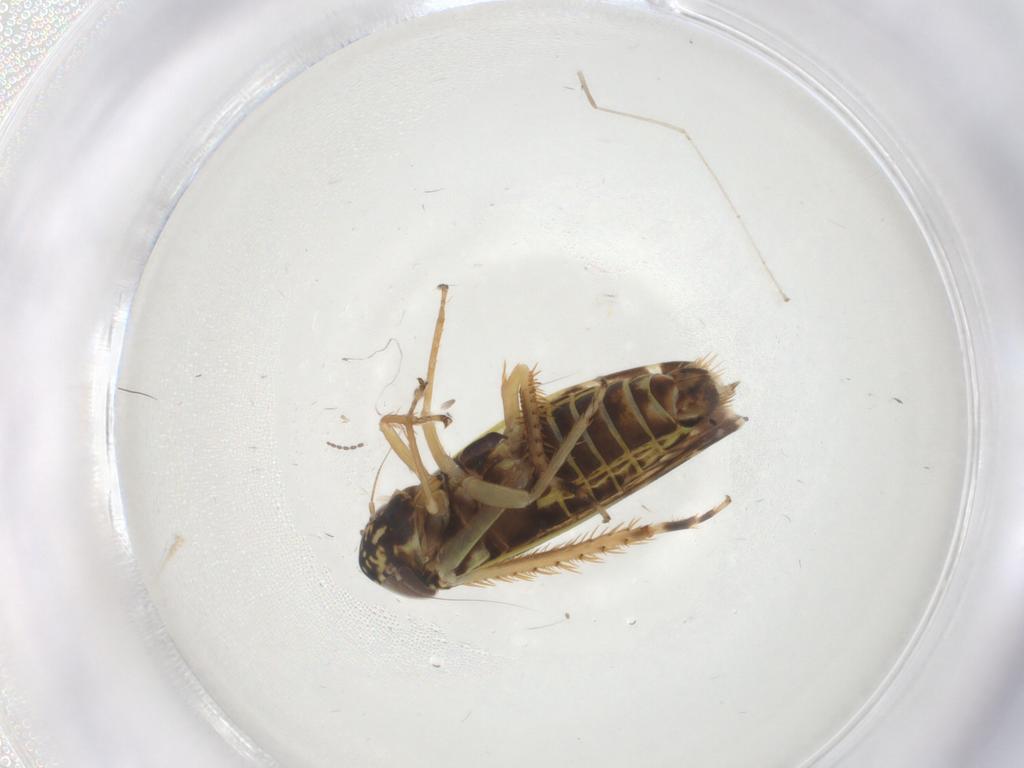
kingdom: Animalia
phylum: Arthropoda
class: Insecta
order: Hemiptera
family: Cicadellidae
